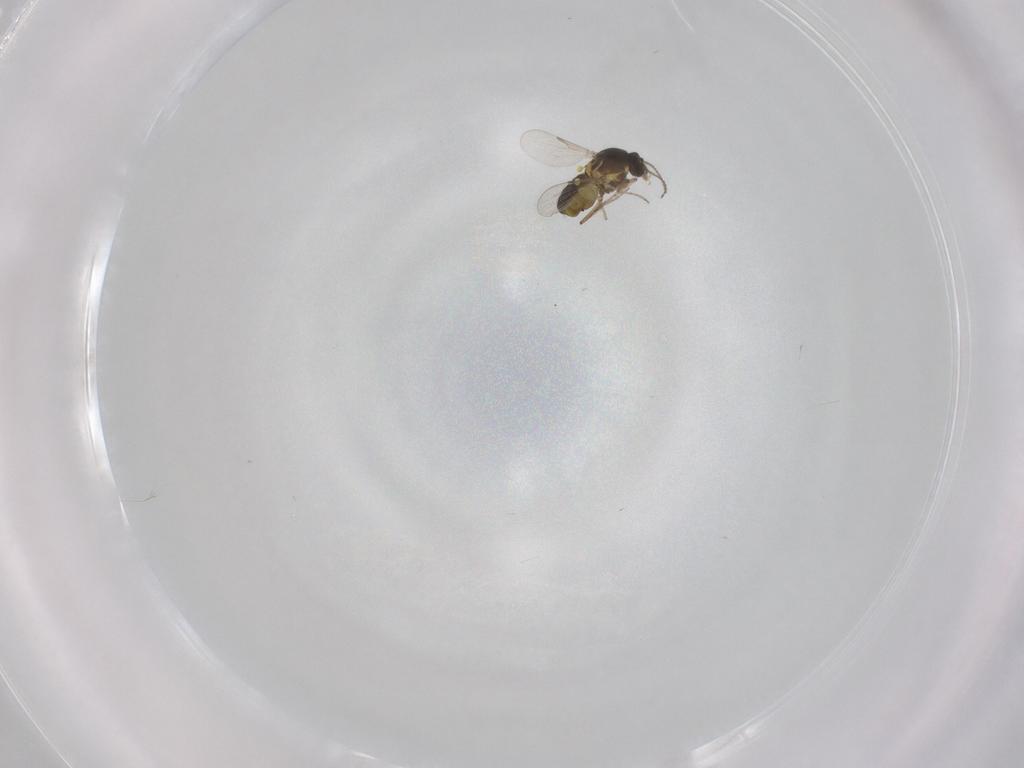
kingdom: Animalia
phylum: Arthropoda
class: Insecta
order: Diptera
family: Ceratopogonidae
